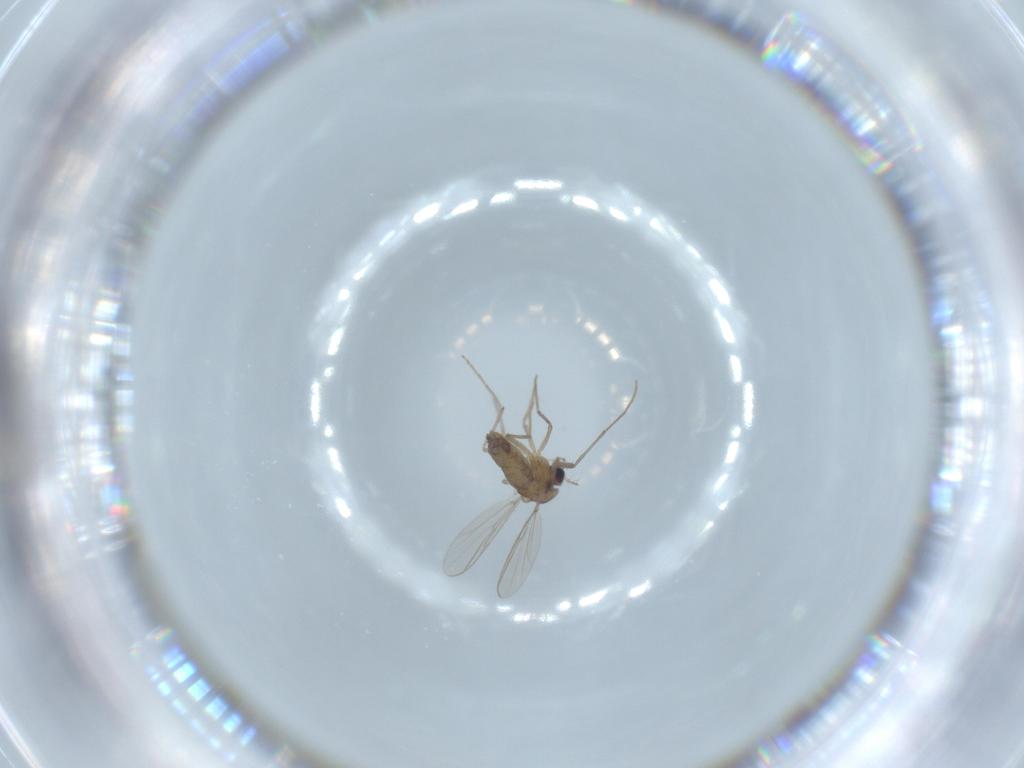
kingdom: Animalia
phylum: Arthropoda
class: Insecta
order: Diptera
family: Chironomidae
